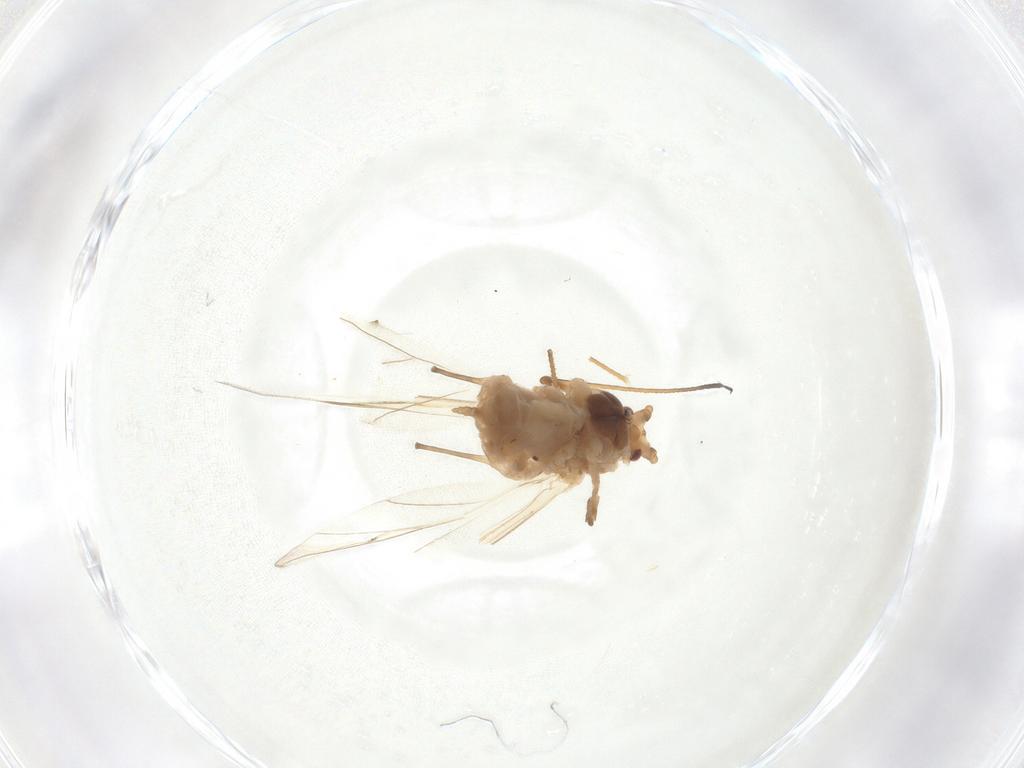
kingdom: Animalia
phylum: Arthropoda
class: Insecta
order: Hemiptera
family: Aphididae
